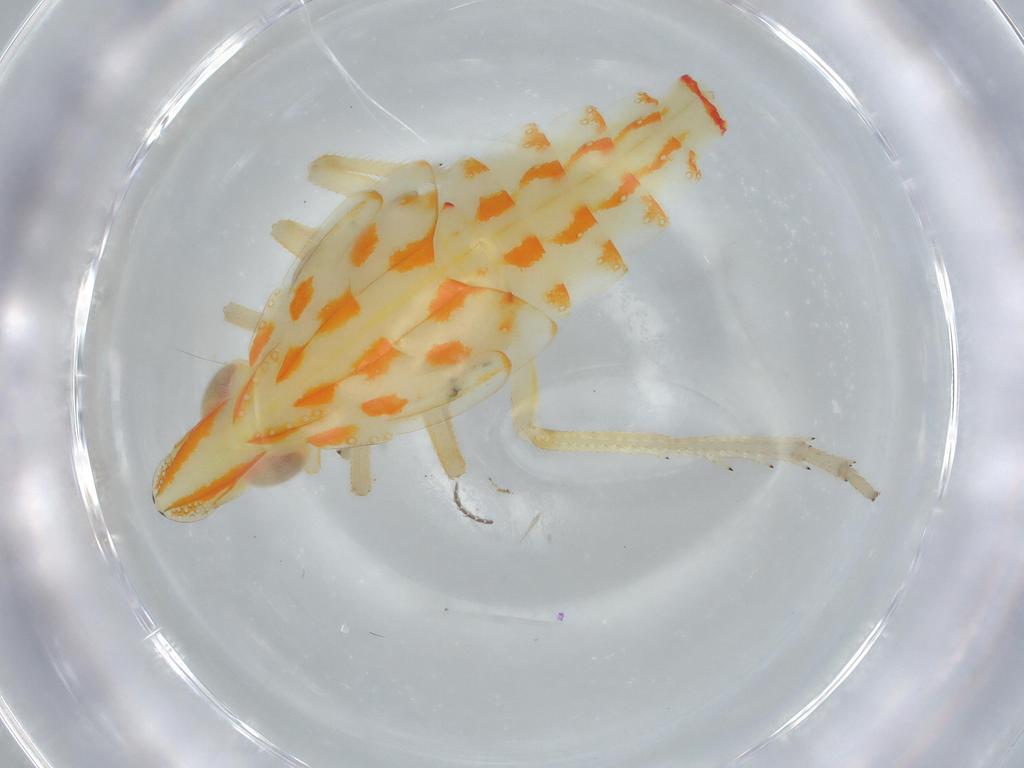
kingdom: Animalia
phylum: Arthropoda
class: Insecta
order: Hemiptera
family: Tropiduchidae
